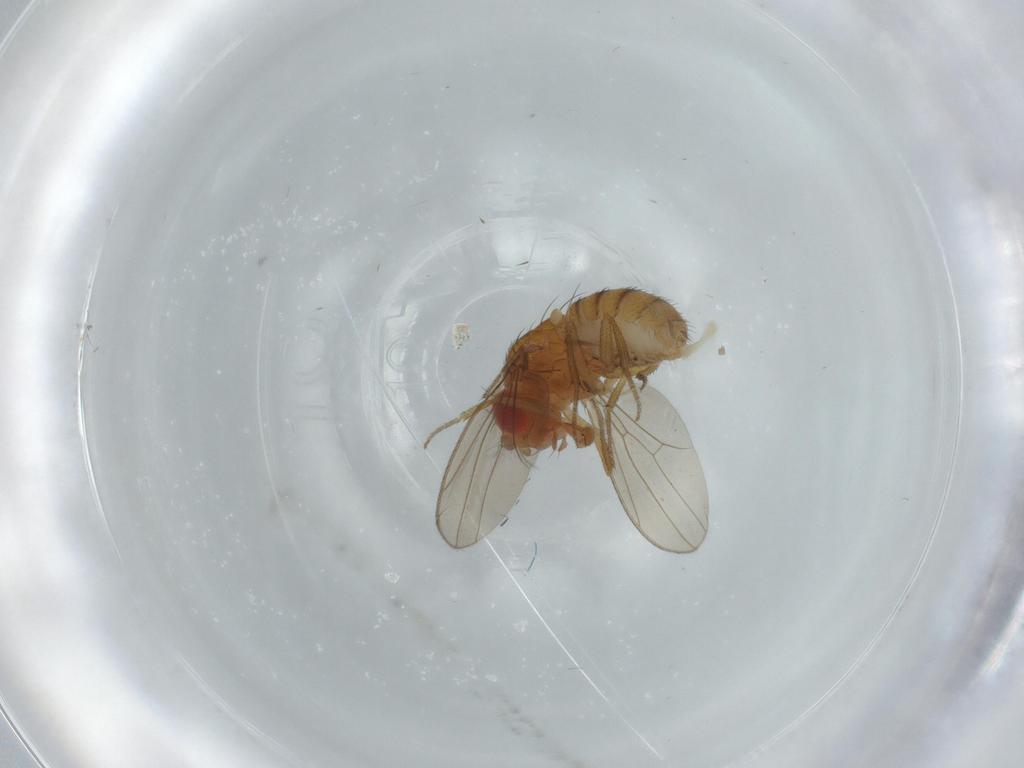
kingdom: Animalia
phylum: Arthropoda
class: Insecta
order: Diptera
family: Drosophilidae
